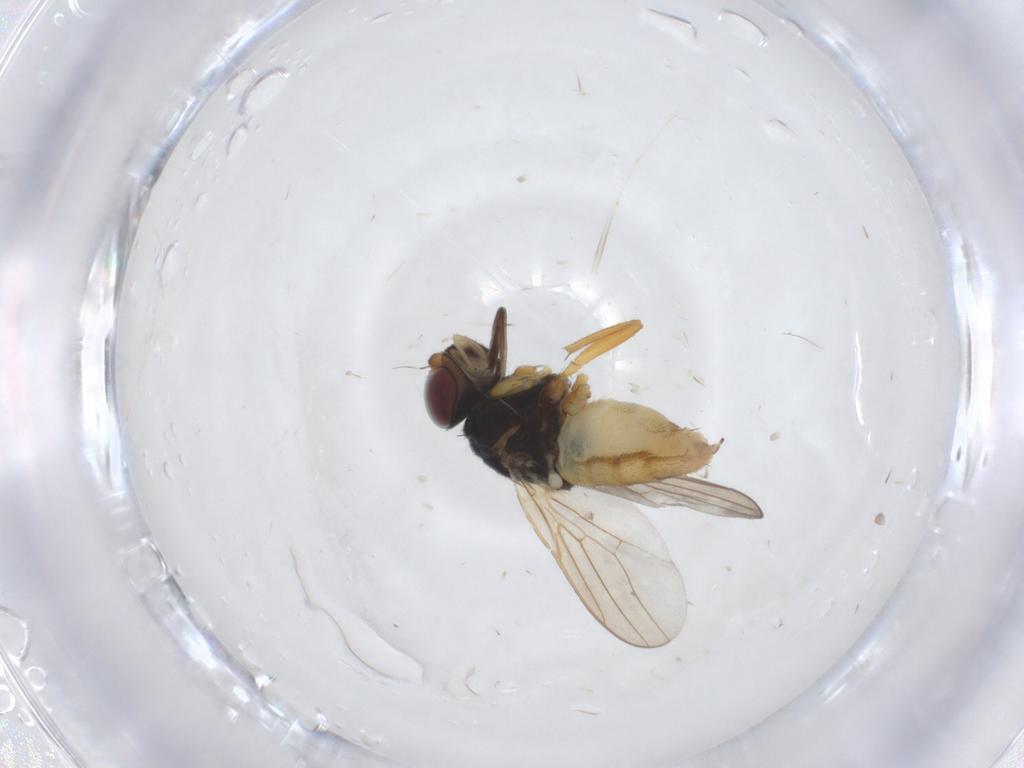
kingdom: Animalia
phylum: Arthropoda
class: Insecta
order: Diptera
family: Chloropidae
